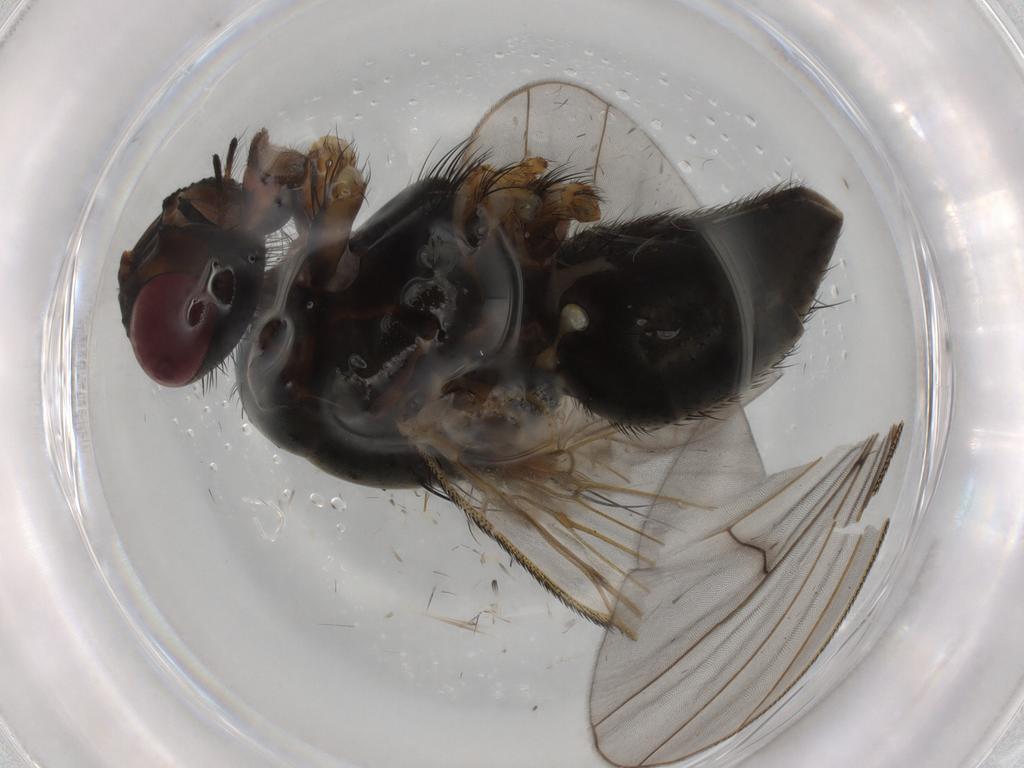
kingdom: Animalia
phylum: Arthropoda
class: Insecta
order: Diptera
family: Muscidae
